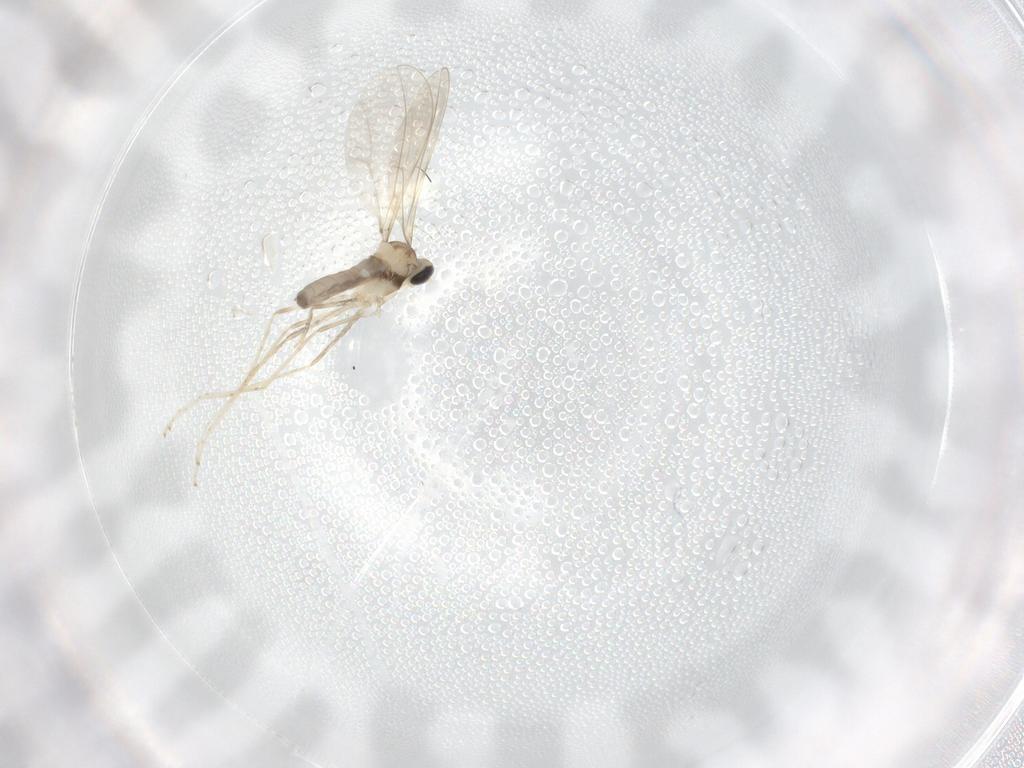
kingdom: Animalia
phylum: Arthropoda
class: Insecta
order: Diptera
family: Cecidomyiidae
